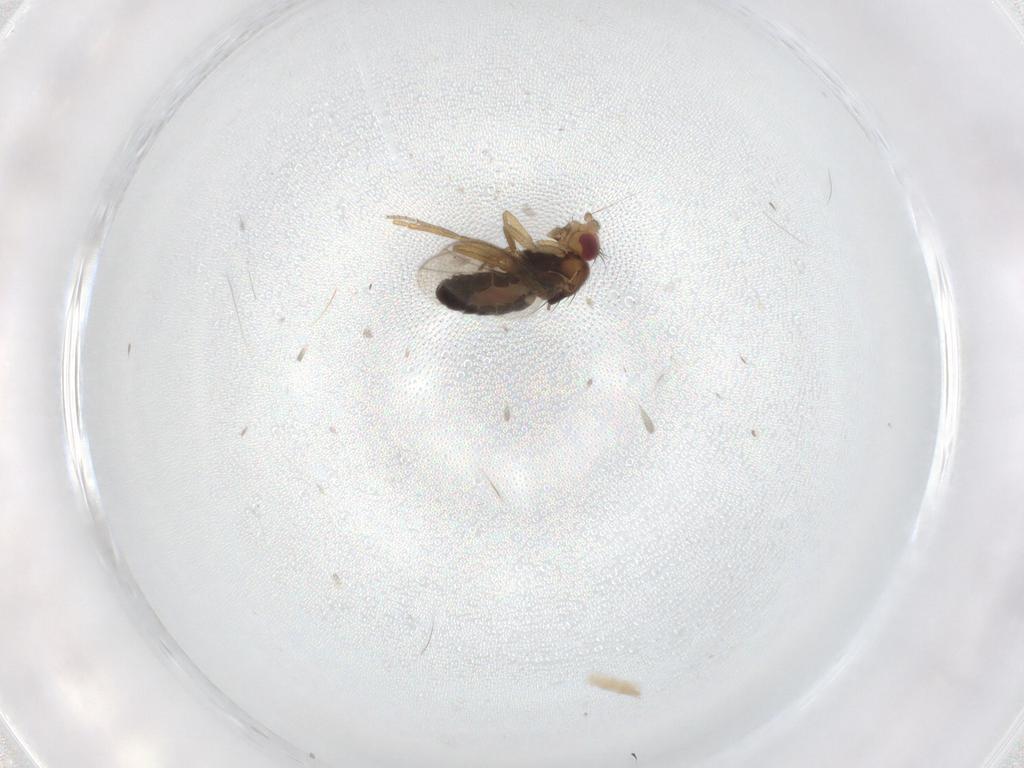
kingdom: Animalia
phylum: Arthropoda
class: Insecta
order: Diptera
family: Sphaeroceridae
